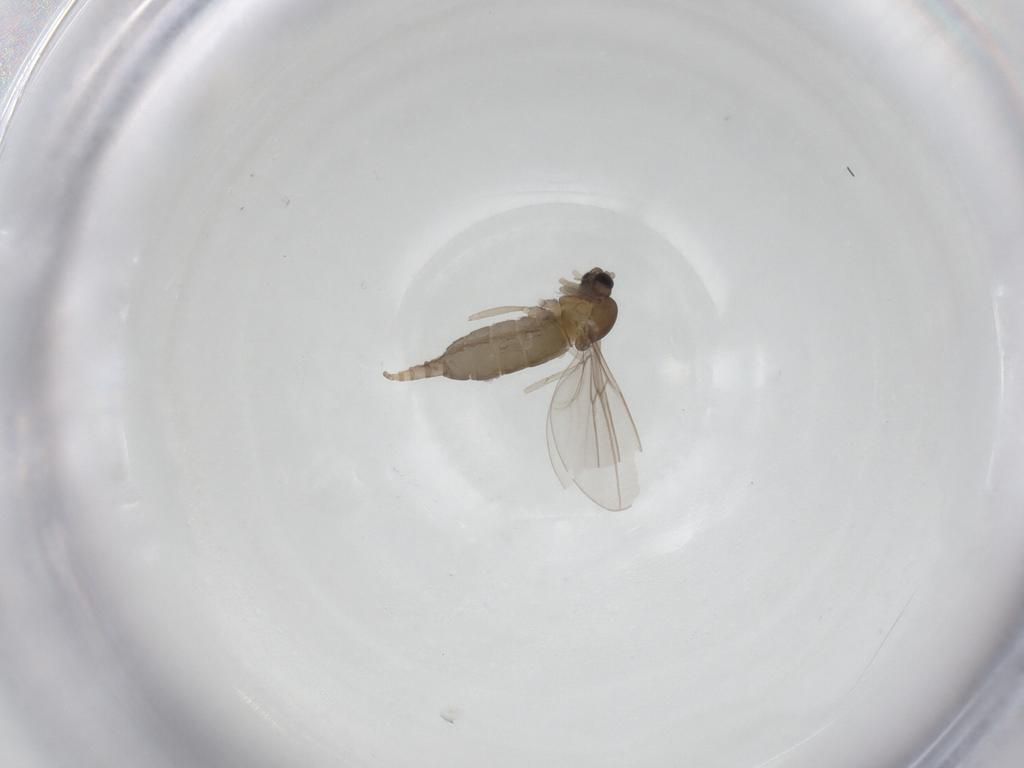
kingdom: Animalia
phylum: Arthropoda
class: Insecta
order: Diptera
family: Cecidomyiidae
